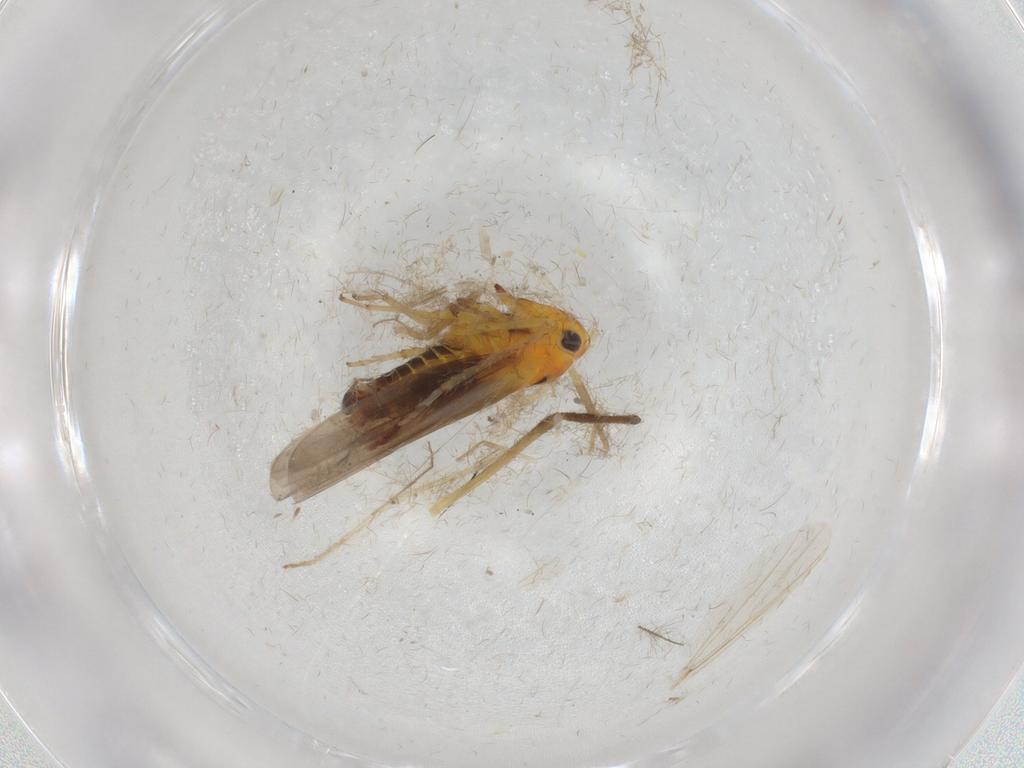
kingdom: Animalia
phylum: Arthropoda
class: Insecta
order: Hemiptera
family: Cicadellidae
